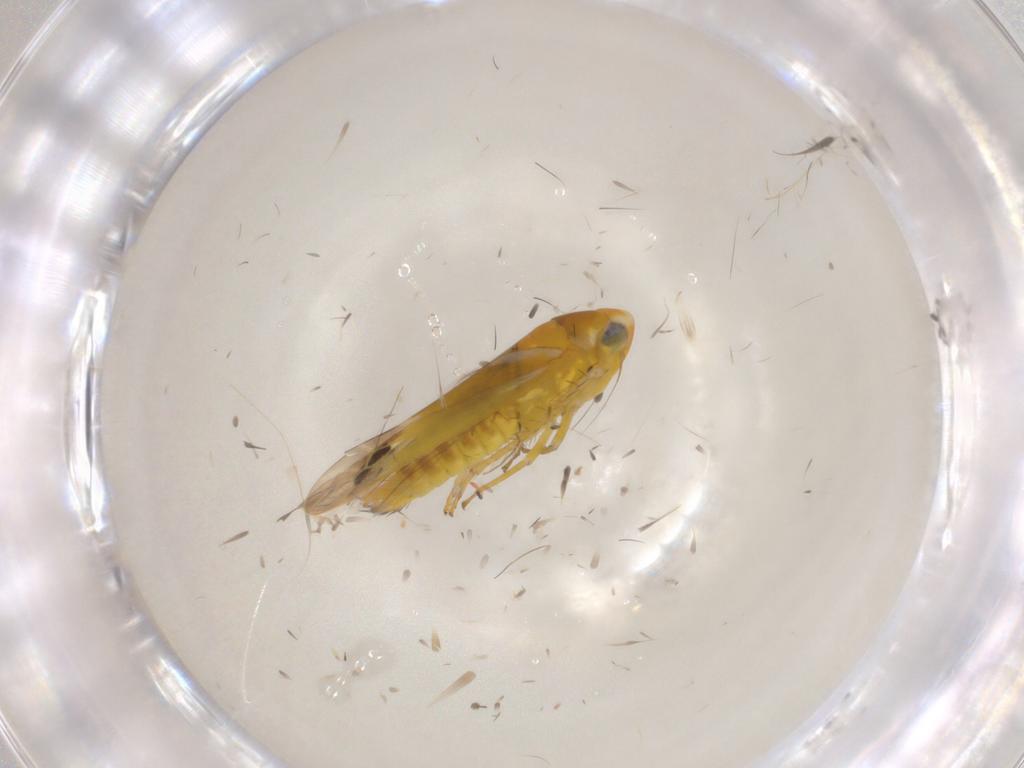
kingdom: Animalia
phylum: Arthropoda
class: Insecta
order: Hemiptera
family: Cicadellidae
